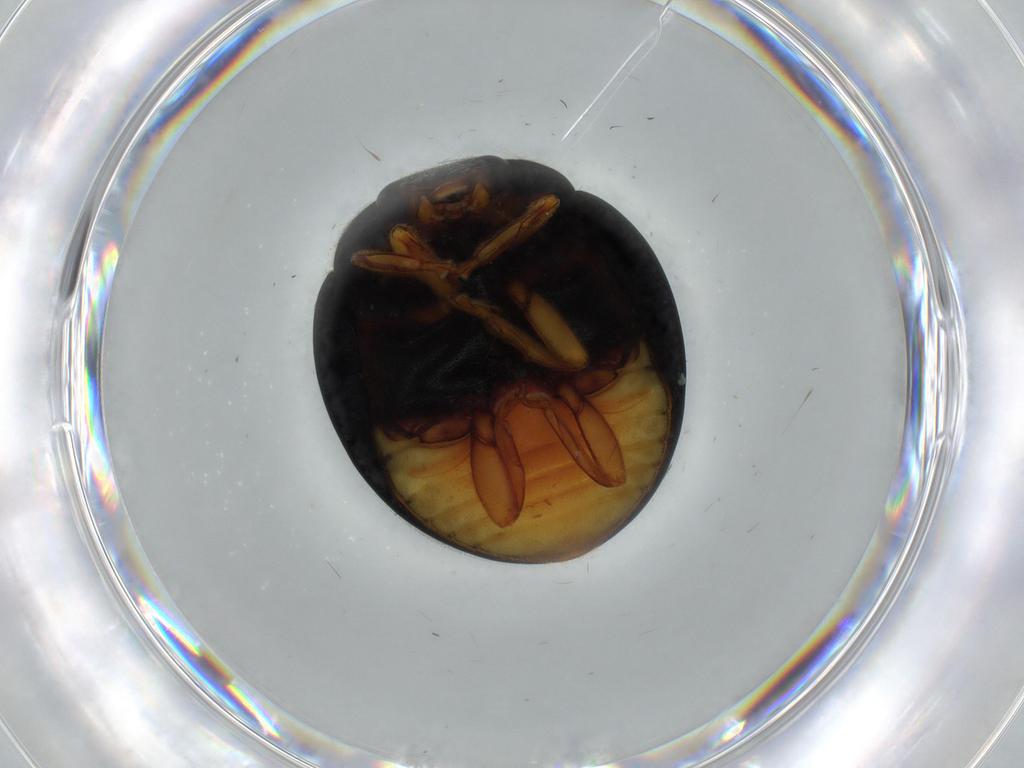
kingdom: Animalia
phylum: Arthropoda
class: Insecta
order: Coleoptera
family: Coccinellidae
